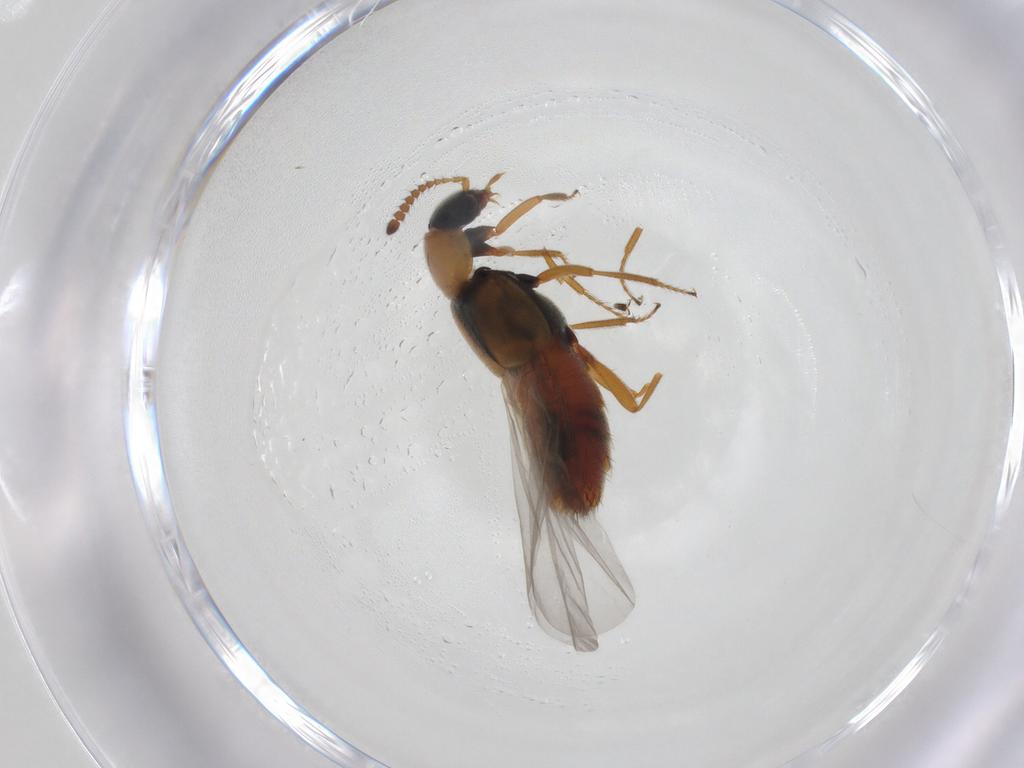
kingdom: Animalia
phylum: Arthropoda
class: Insecta
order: Coleoptera
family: Staphylinidae
